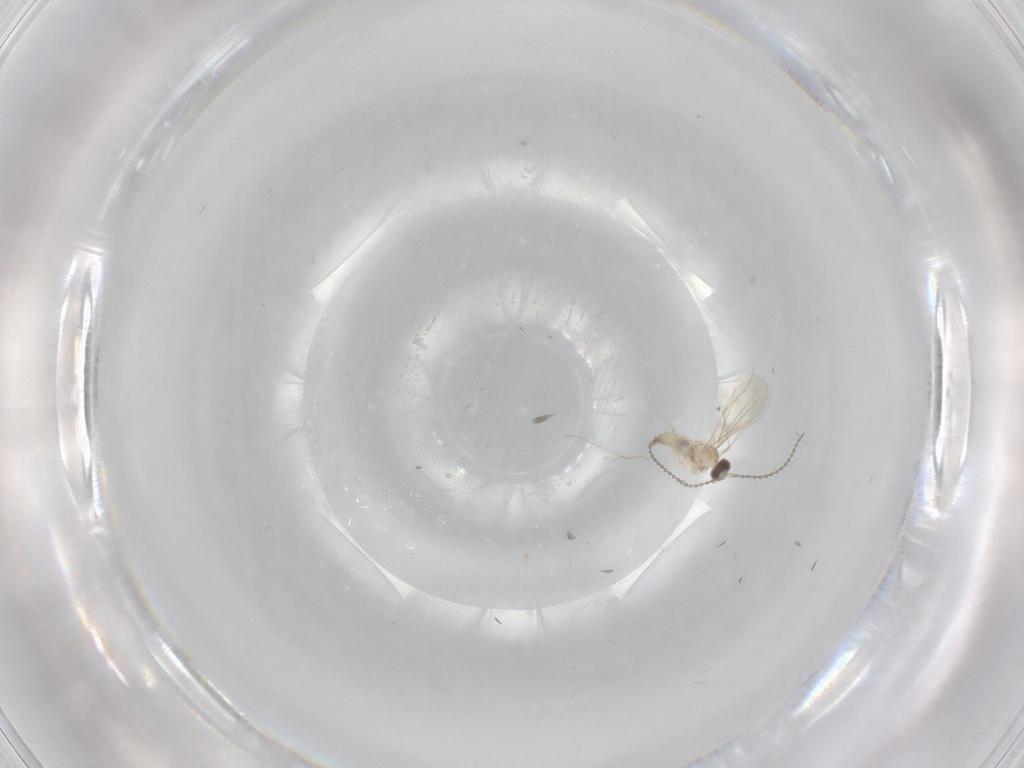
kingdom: Animalia
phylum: Arthropoda
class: Insecta
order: Diptera
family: Psychodidae
